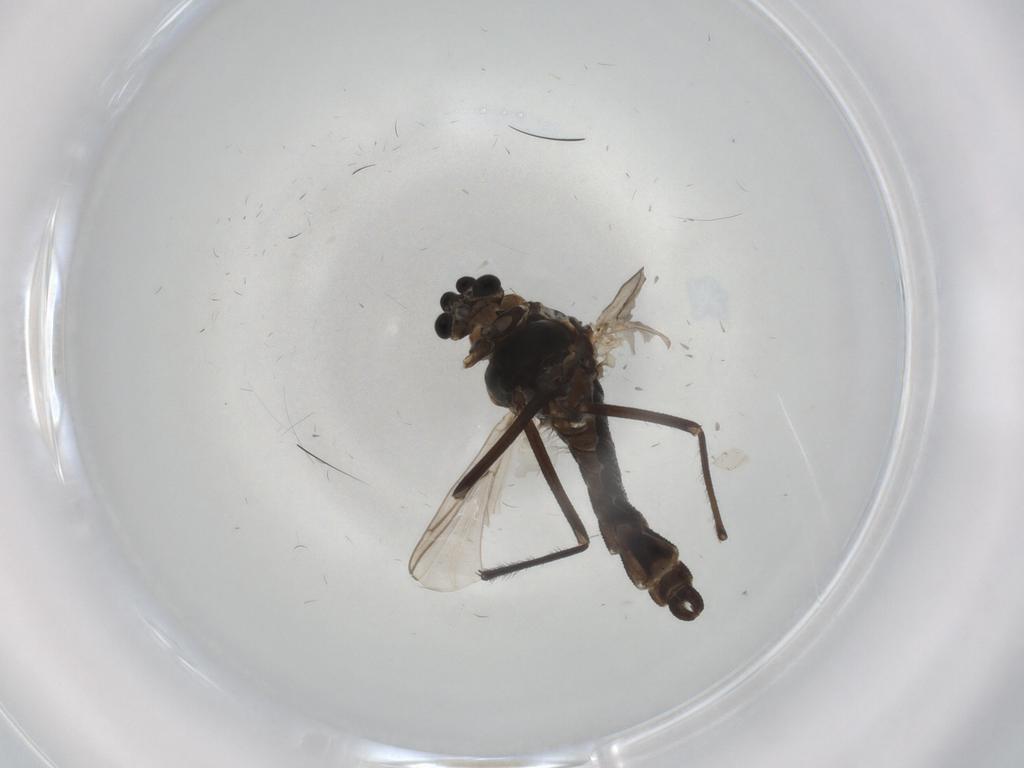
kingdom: Animalia
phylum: Arthropoda
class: Insecta
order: Diptera
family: Chironomidae
